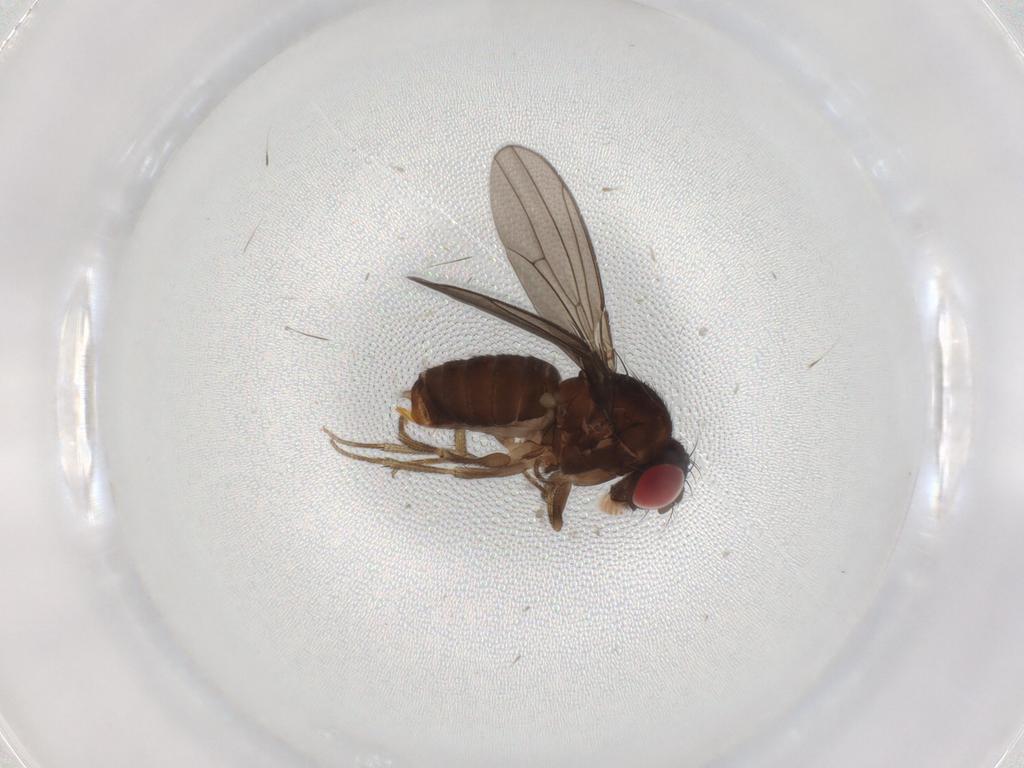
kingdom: Animalia
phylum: Arthropoda
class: Insecta
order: Diptera
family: Drosophilidae
